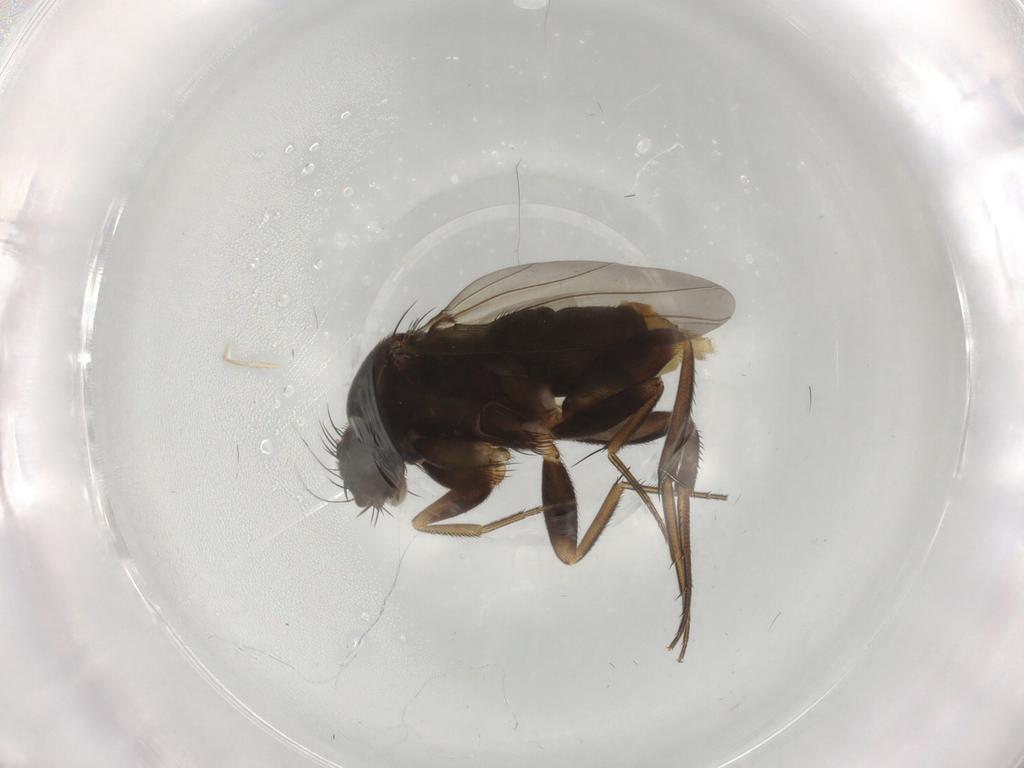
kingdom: Animalia
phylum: Arthropoda
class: Insecta
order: Diptera
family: Phoridae
